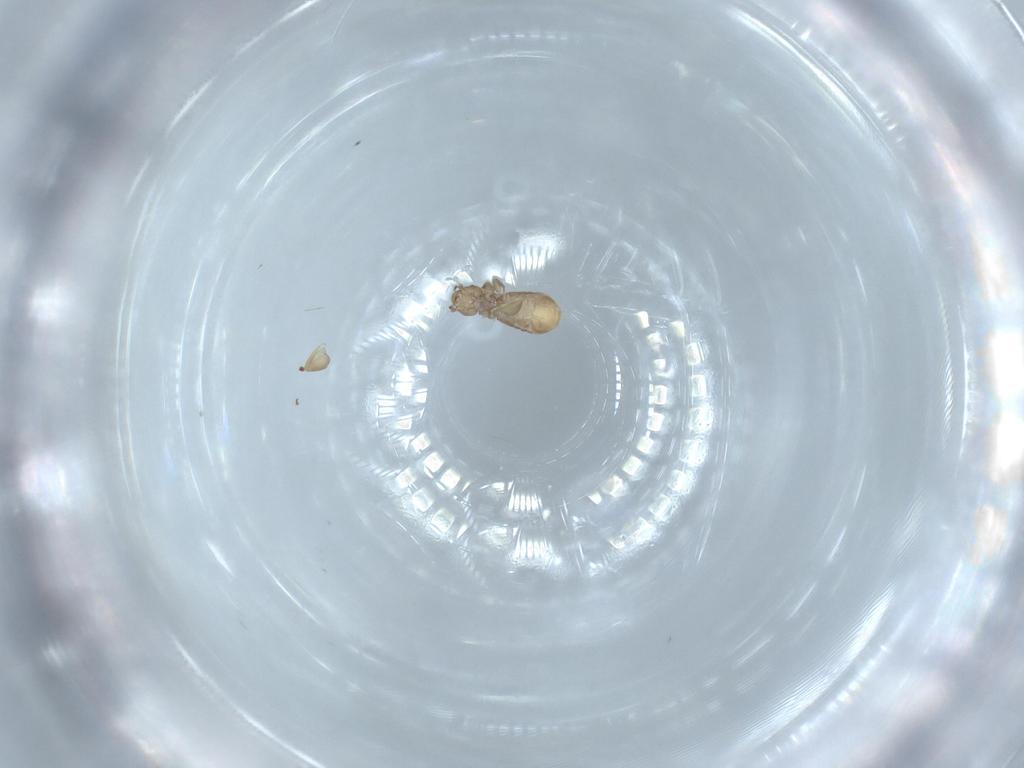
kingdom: Animalia
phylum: Arthropoda
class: Insecta
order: Psocodea
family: Liposcelididae
